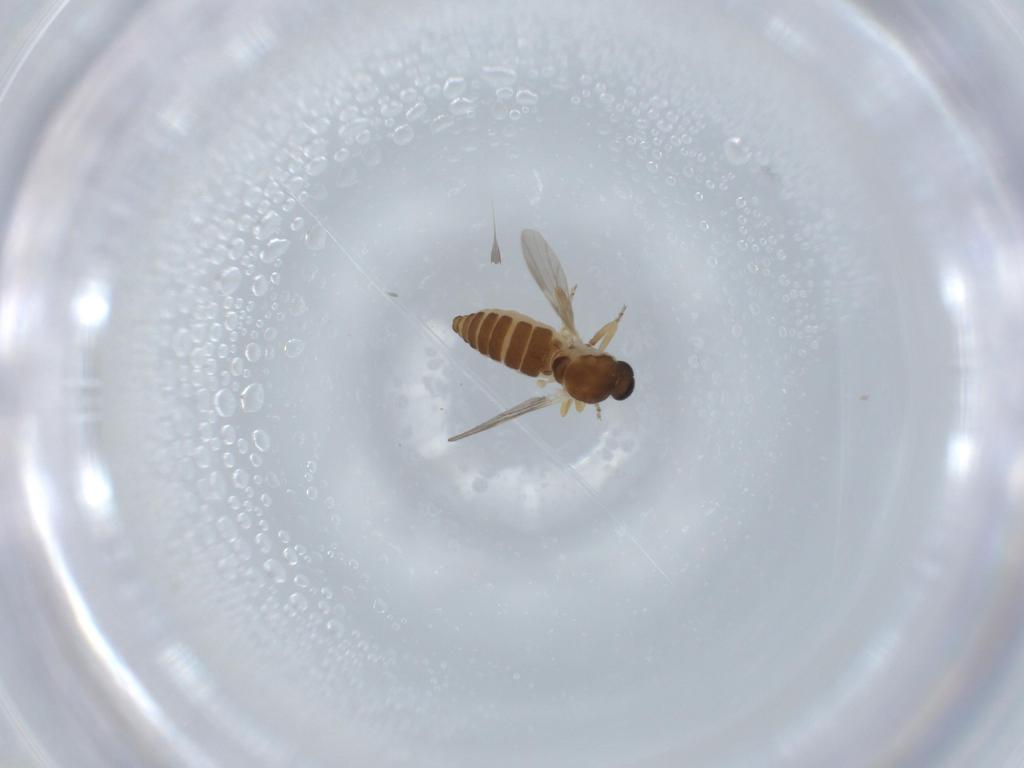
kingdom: Animalia
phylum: Arthropoda
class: Insecta
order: Diptera
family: Ceratopogonidae
